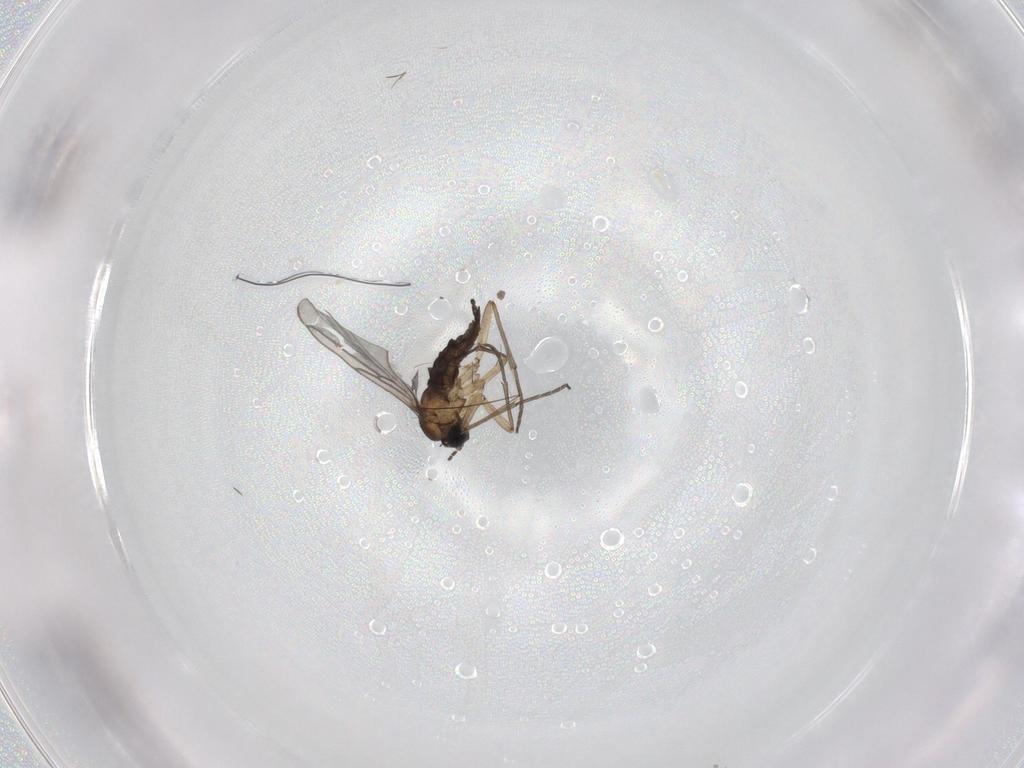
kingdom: Animalia
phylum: Arthropoda
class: Insecta
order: Diptera
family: Sciaridae
